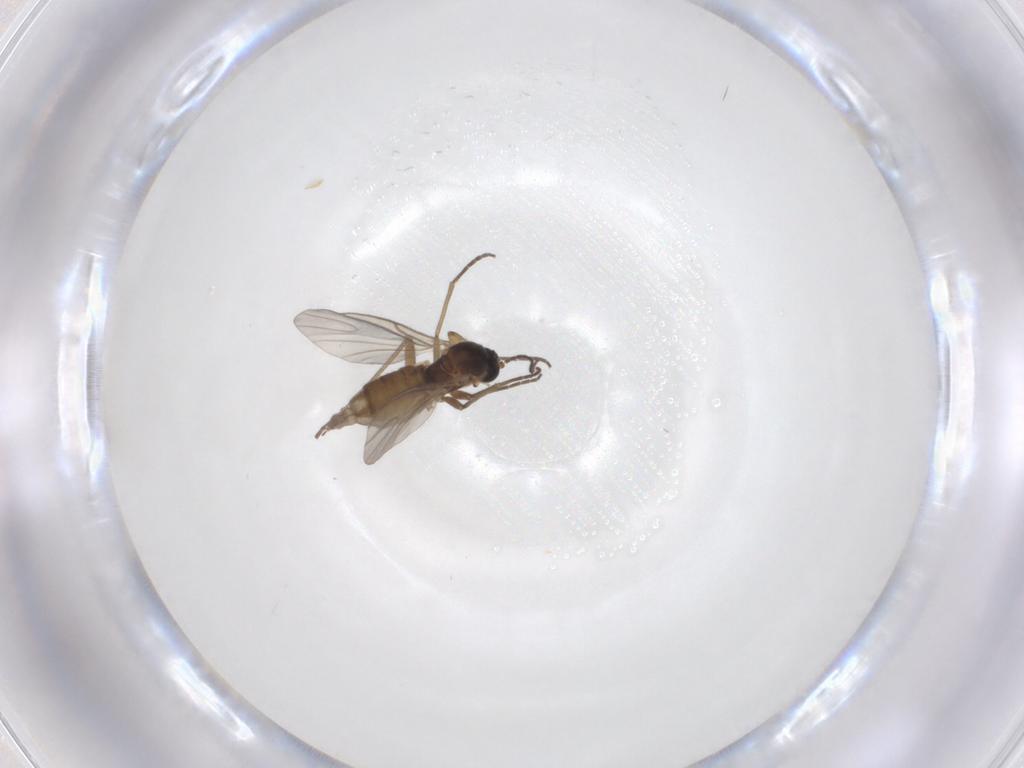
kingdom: Animalia
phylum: Arthropoda
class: Insecta
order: Diptera
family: Sciaridae
